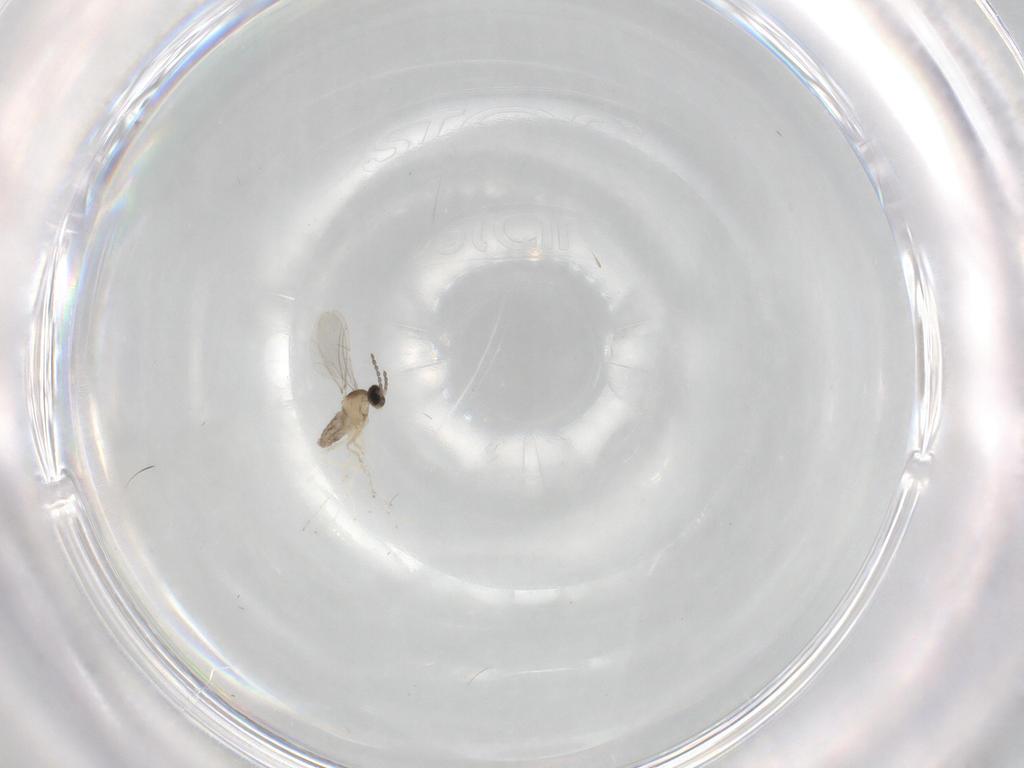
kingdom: Animalia
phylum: Arthropoda
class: Insecta
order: Diptera
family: Cecidomyiidae
